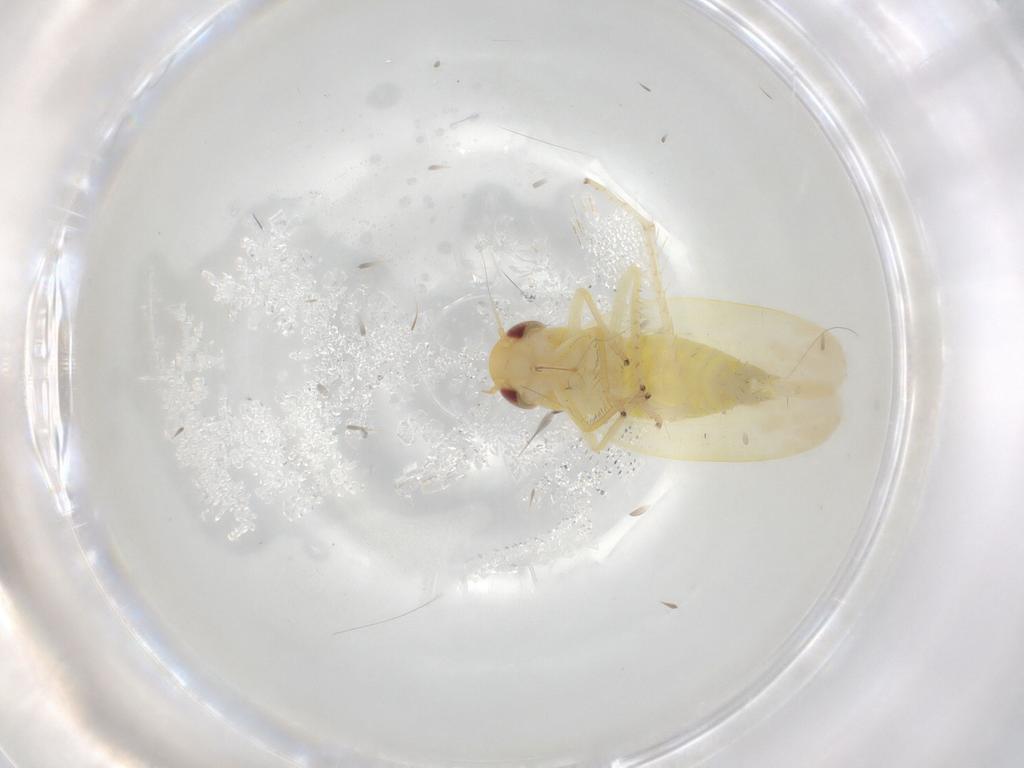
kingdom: Animalia
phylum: Arthropoda
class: Insecta
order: Hemiptera
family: Cicadellidae
